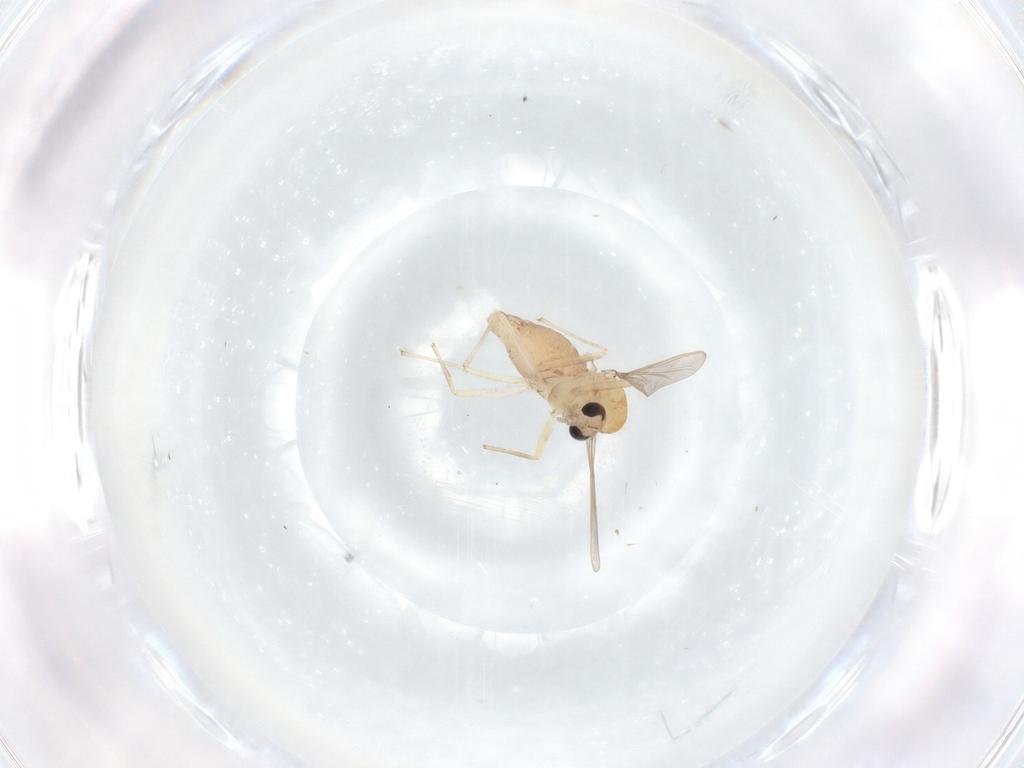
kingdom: Animalia
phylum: Arthropoda
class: Insecta
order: Diptera
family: Chironomidae
